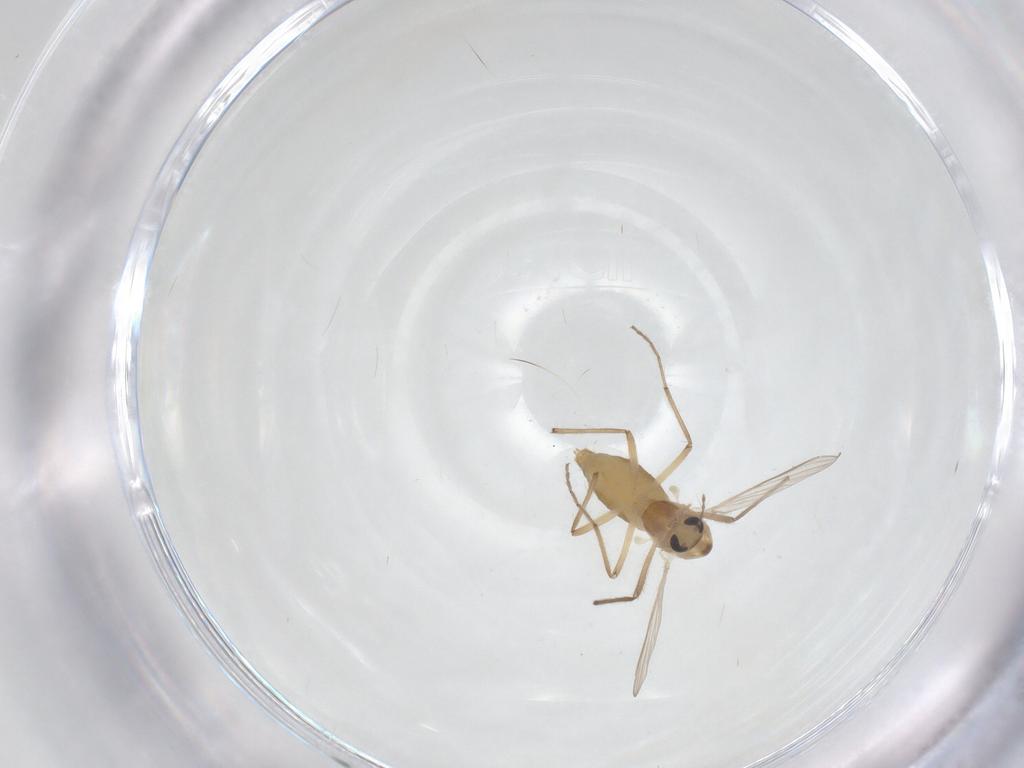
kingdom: Animalia
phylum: Arthropoda
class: Insecta
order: Diptera
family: Chironomidae
